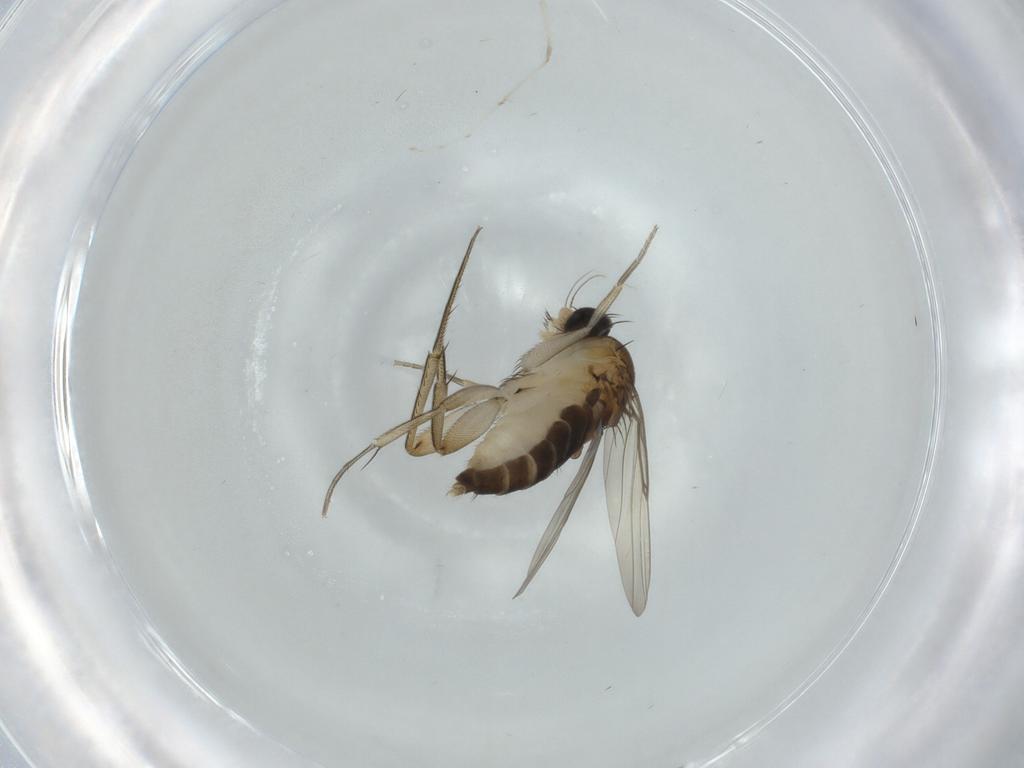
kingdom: Animalia
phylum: Arthropoda
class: Insecta
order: Diptera
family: Phoridae
